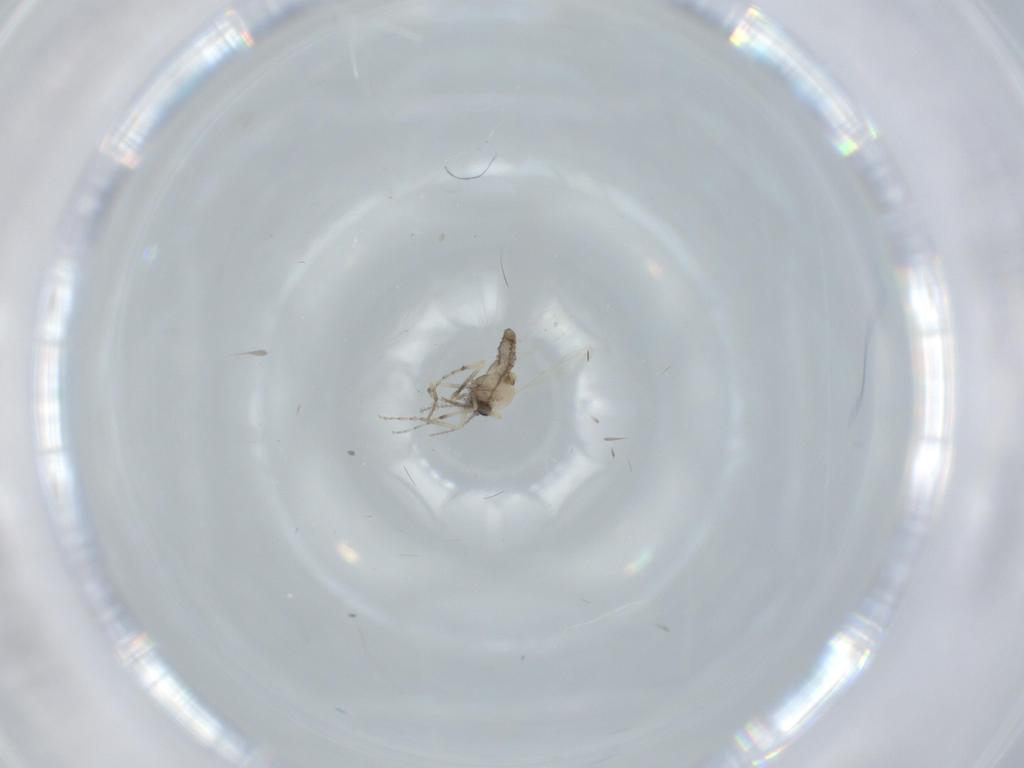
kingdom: Animalia
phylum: Arthropoda
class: Insecta
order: Diptera
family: Ceratopogonidae
